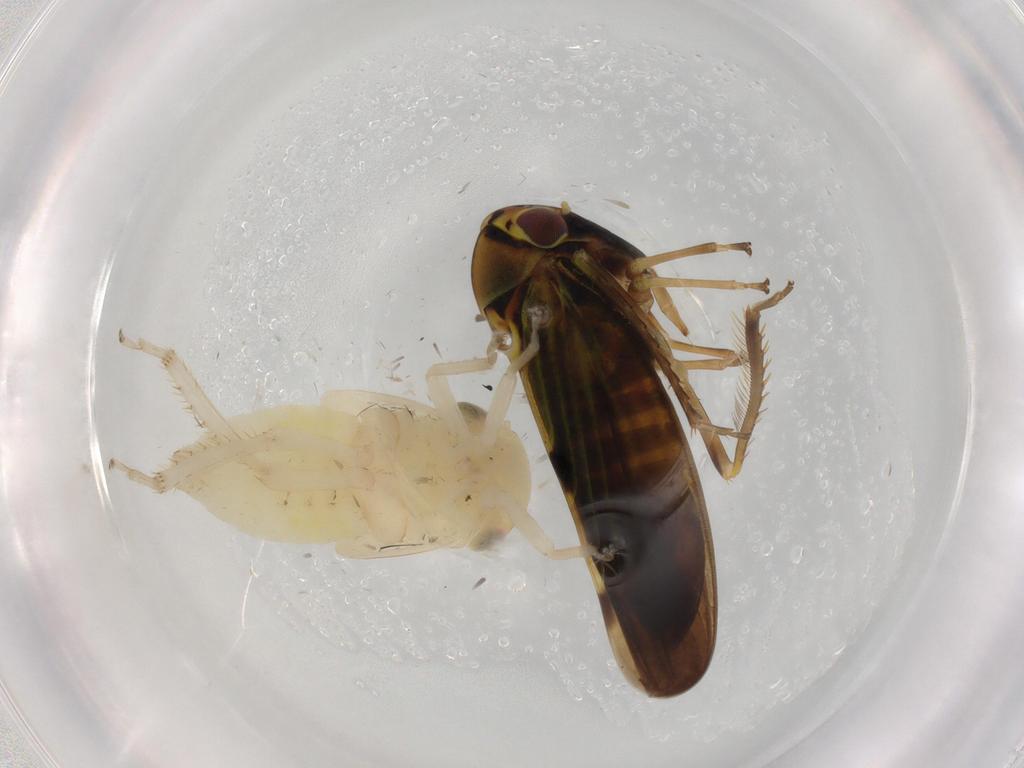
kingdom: Animalia
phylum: Arthropoda
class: Insecta
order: Hemiptera
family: Cicadellidae
